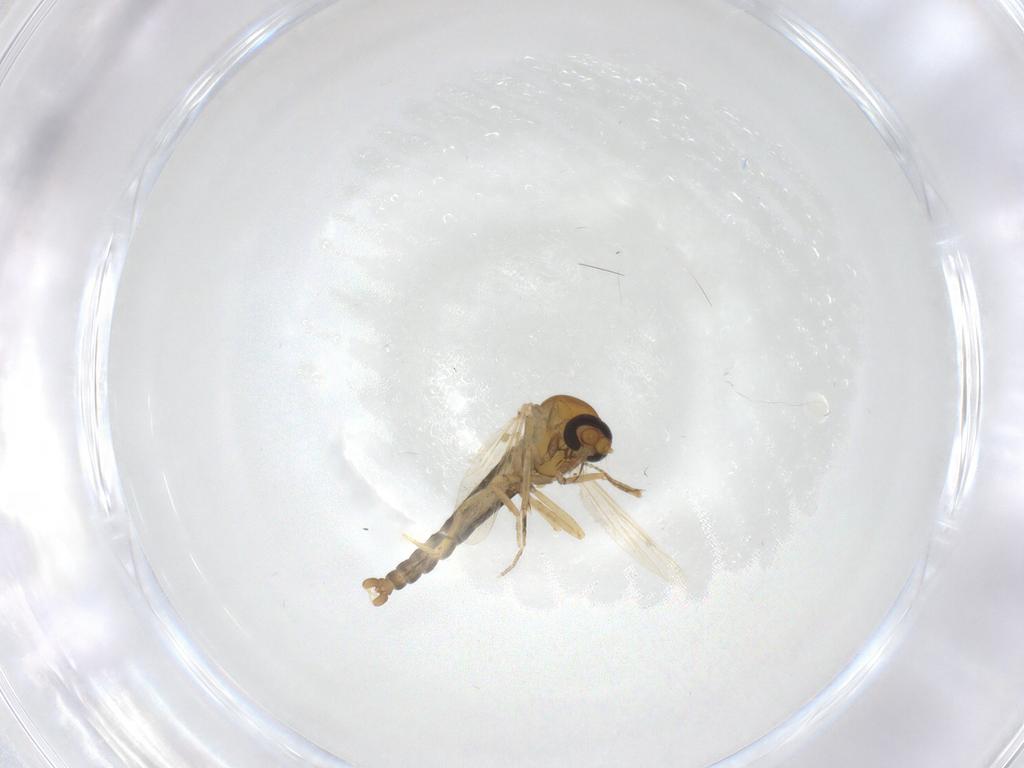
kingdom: Animalia
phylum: Arthropoda
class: Insecta
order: Diptera
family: Ceratopogonidae
